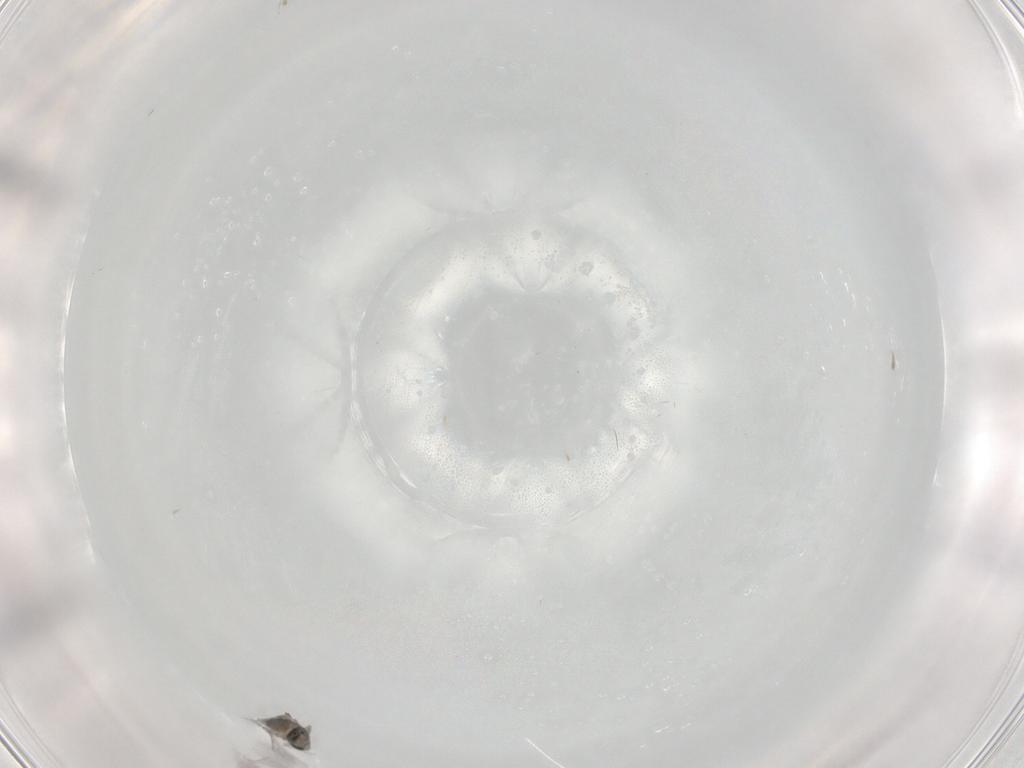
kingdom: Animalia
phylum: Arthropoda
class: Insecta
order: Diptera
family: Cecidomyiidae
